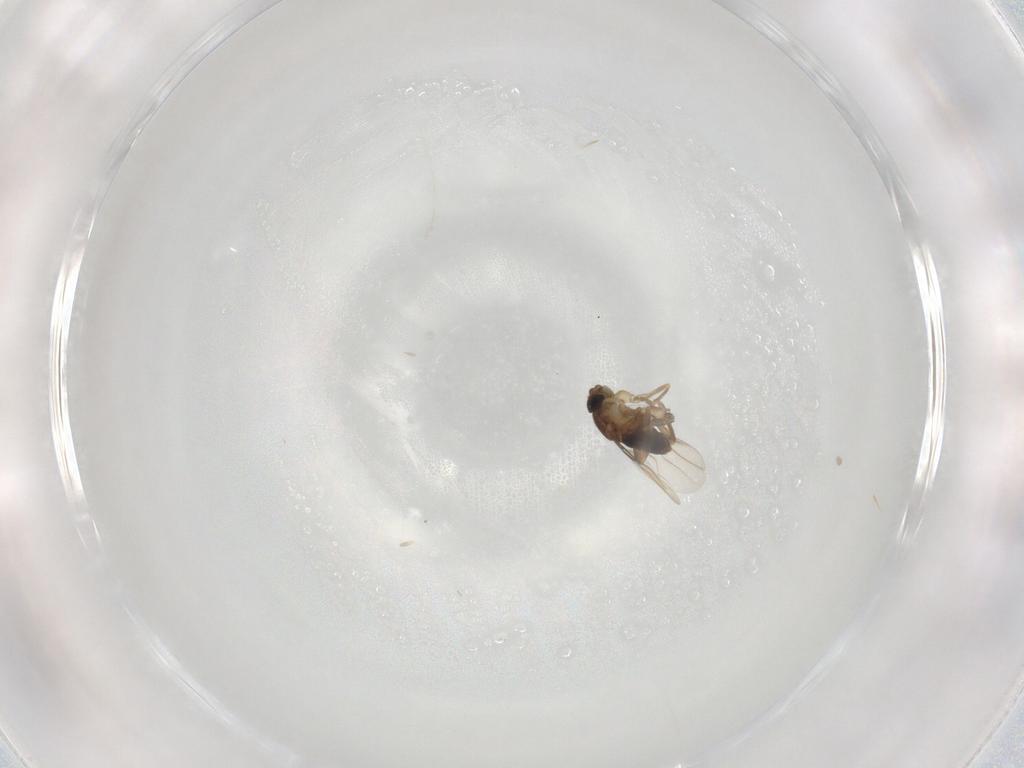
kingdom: Animalia
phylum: Arthropoda
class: Insecta
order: Diptera
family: Phoridae
